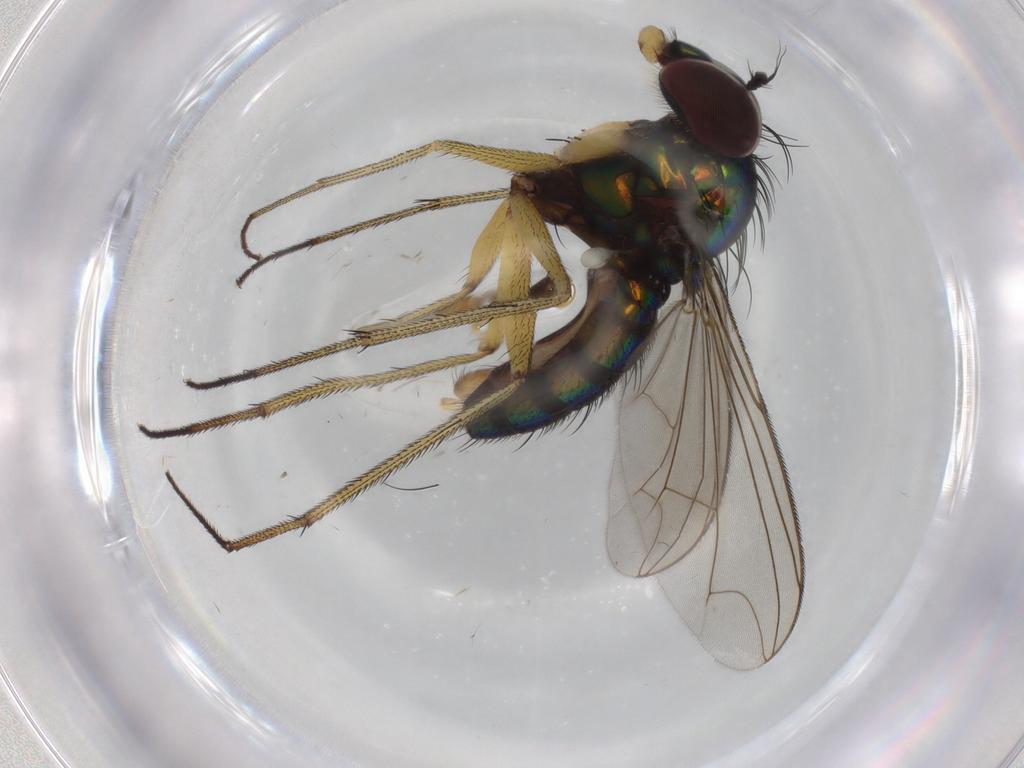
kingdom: Animalia
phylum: Arthropoda
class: Insecta
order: Diptera
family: Dolichopodidae
